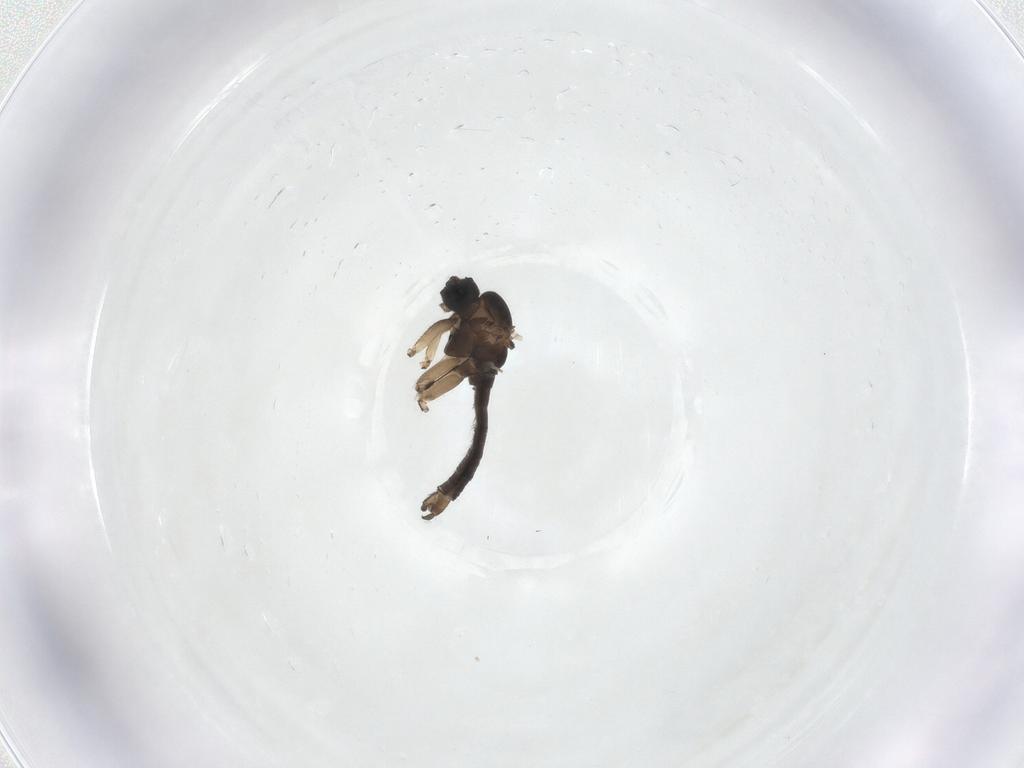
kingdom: Animalia
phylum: Arthropoda
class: Insecta
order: Diptera
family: Sciaridae
